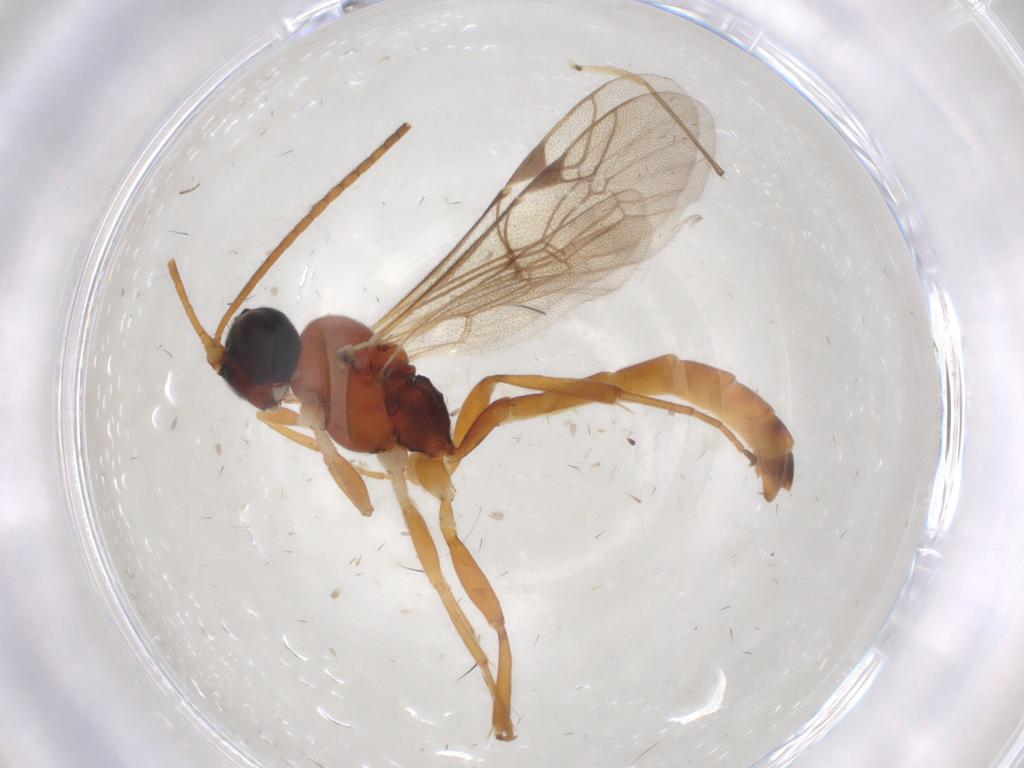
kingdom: Animalia
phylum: Arthropoda
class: Insecta
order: Hymenoptera
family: Ichneumonidae
